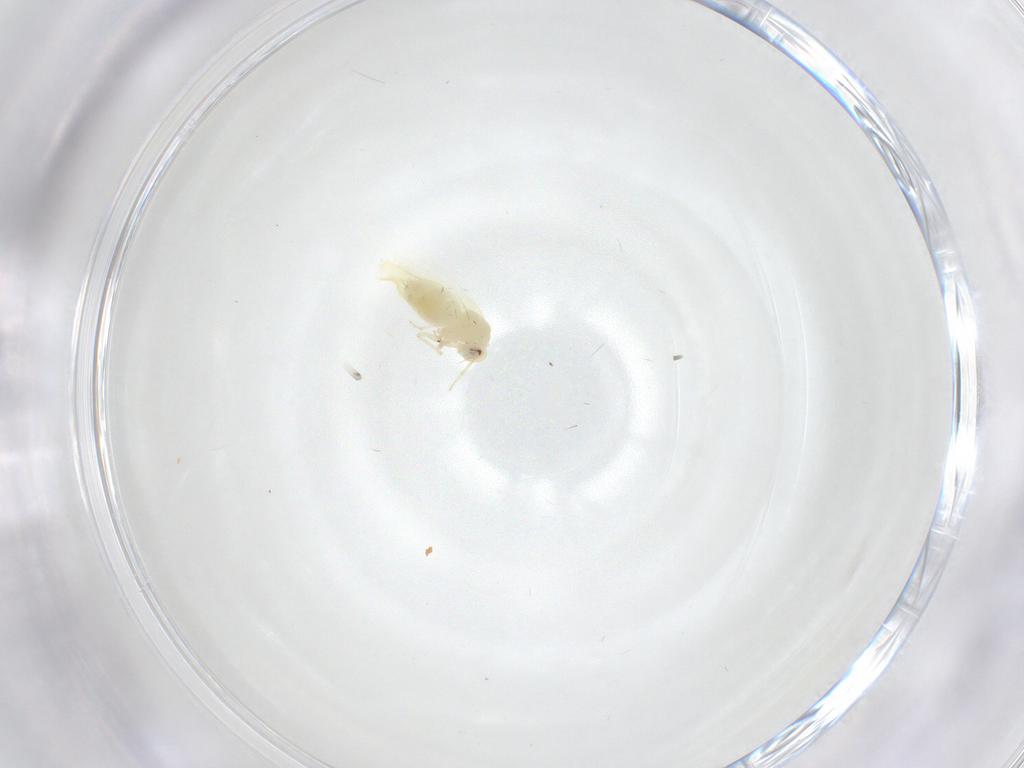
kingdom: Animalia
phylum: Arthropoda
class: Insecta
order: Hemiptera
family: Aleyrodidae
